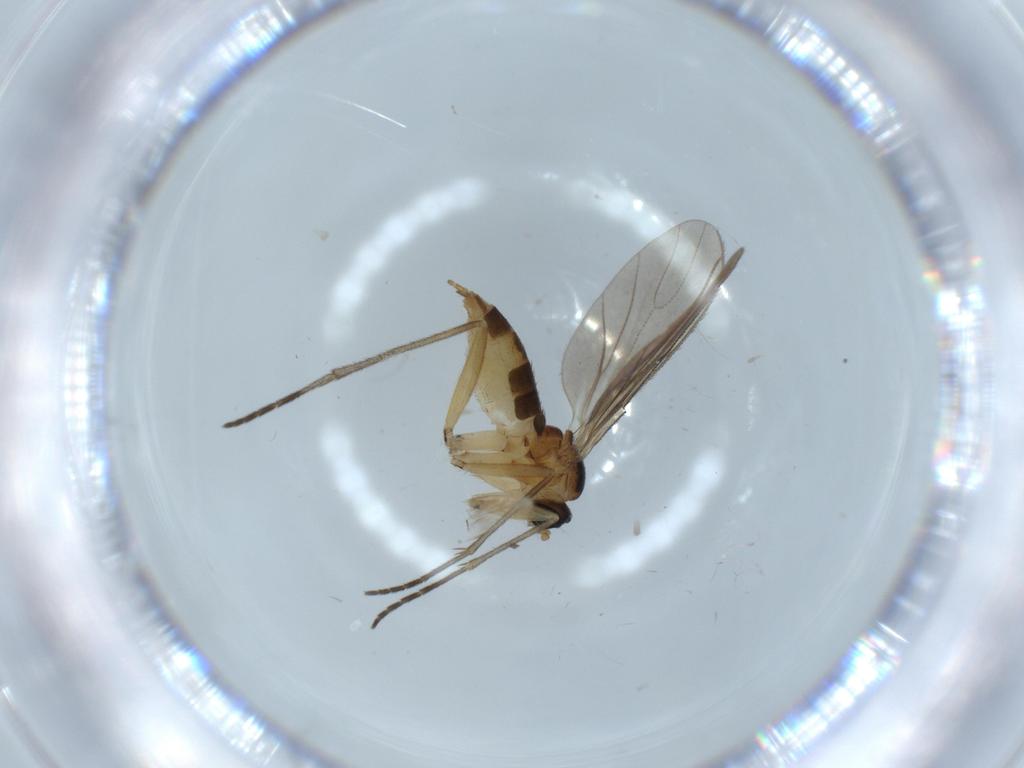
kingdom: Animalia
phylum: Arthropoda
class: Insecta
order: Diptera
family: Sciaridae
